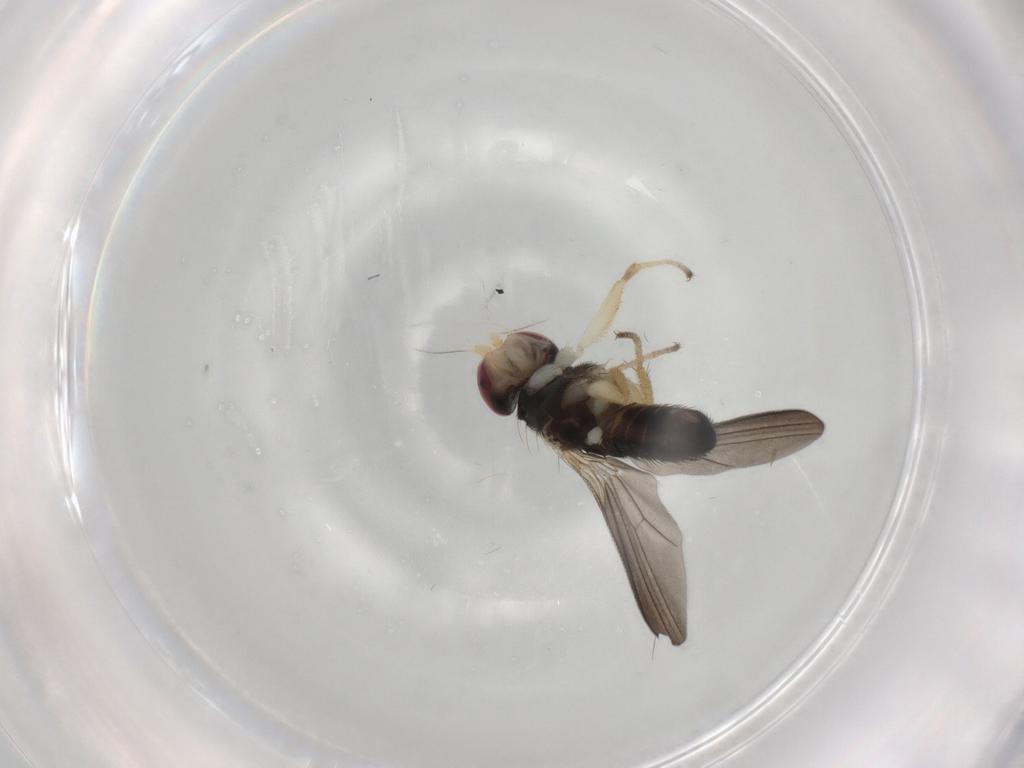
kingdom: Animalia
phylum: Arthropoda
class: Insecta
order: Diptera
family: Clusiidae
